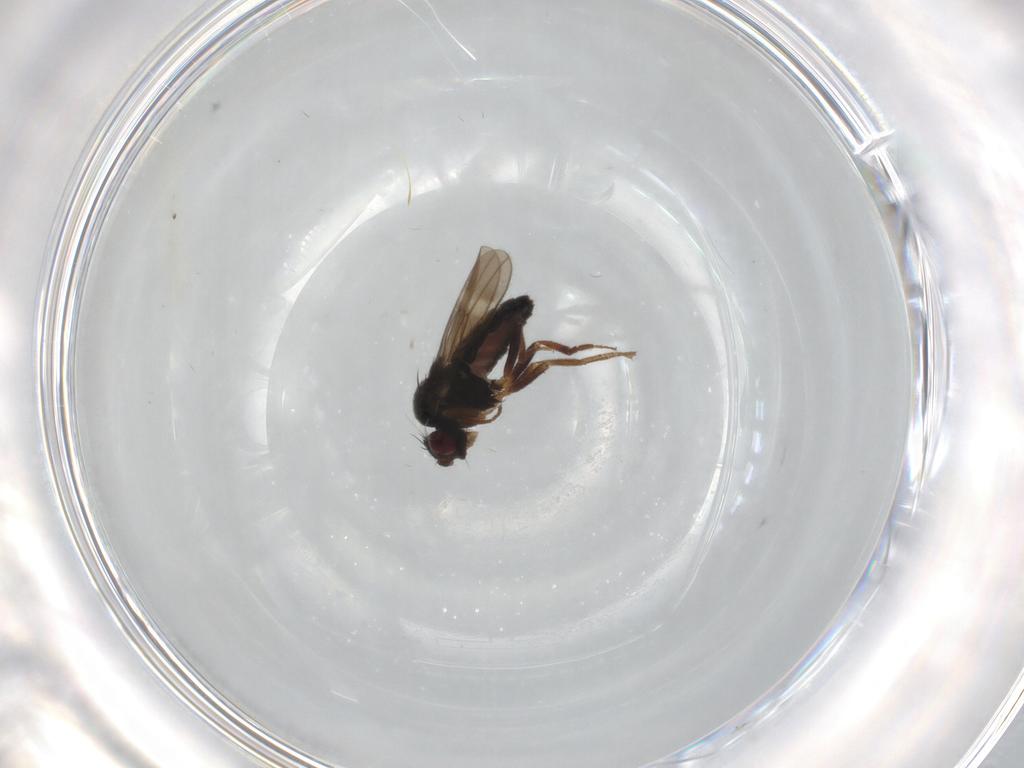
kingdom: Animalia
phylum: Arthropoda
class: Insecta
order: Diptera
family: Sphaeroceridae
